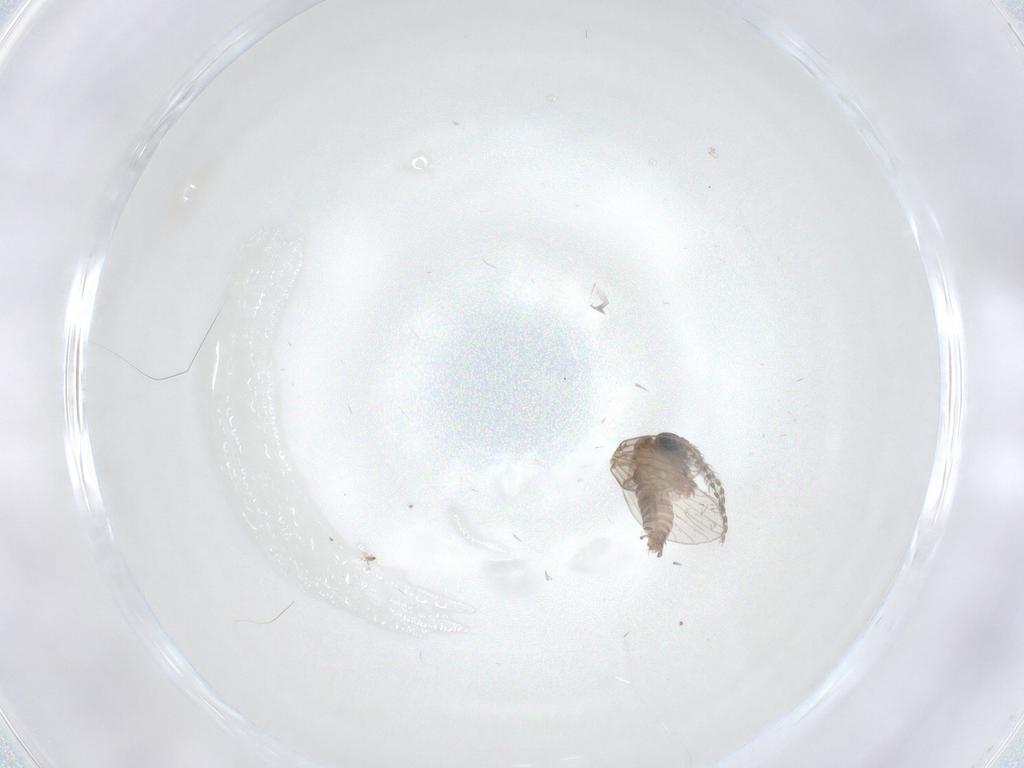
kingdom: Animalia
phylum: Arthropoda
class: Insecta
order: Diptera
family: Psychodidae
